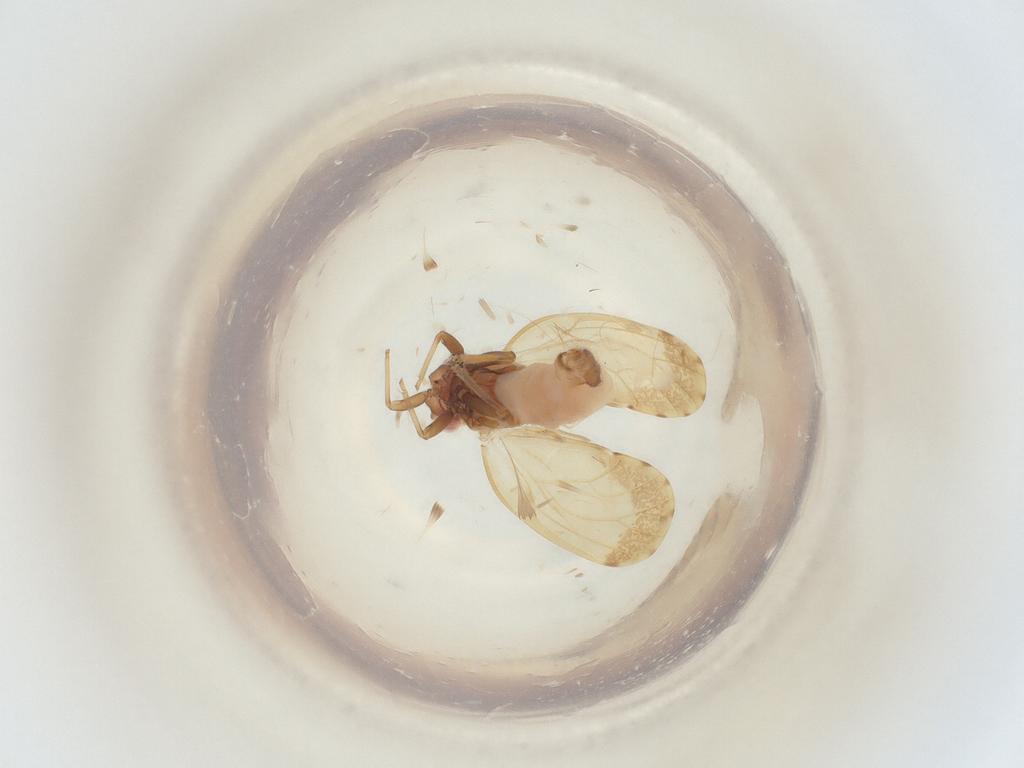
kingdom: Animalia
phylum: Arthropoda
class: Insecta
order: Diptera
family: Cecidomyiidae
